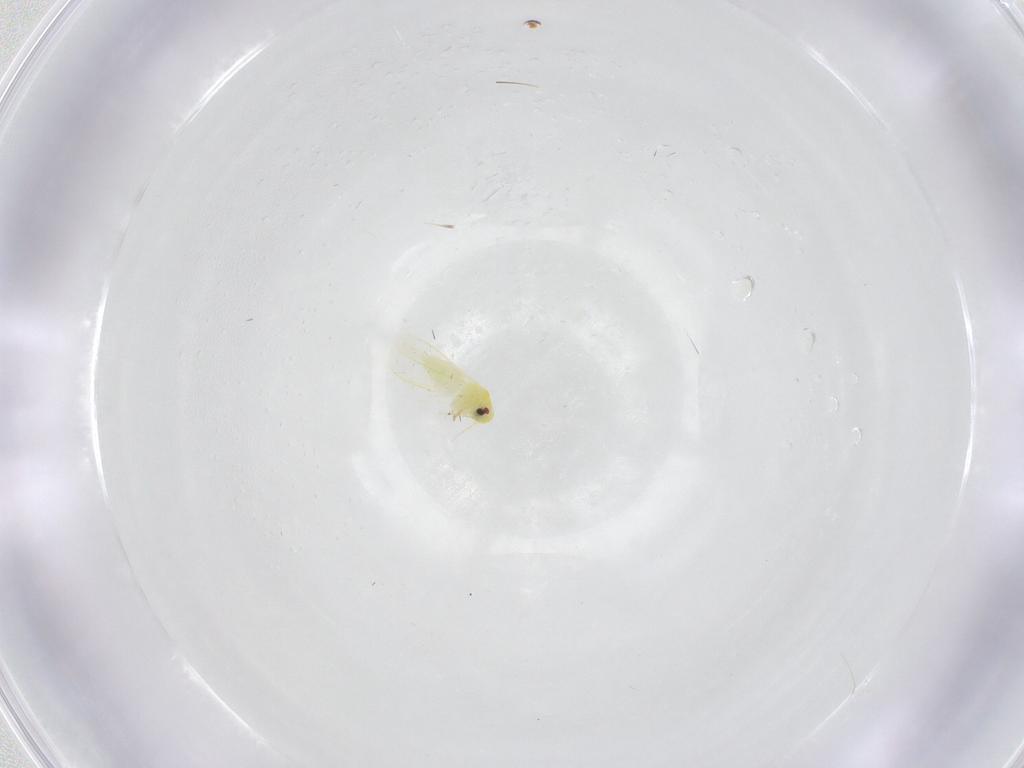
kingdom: Animalia
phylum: Arthropoda
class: Insecta
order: Hemiptera
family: Aleyrodidae
